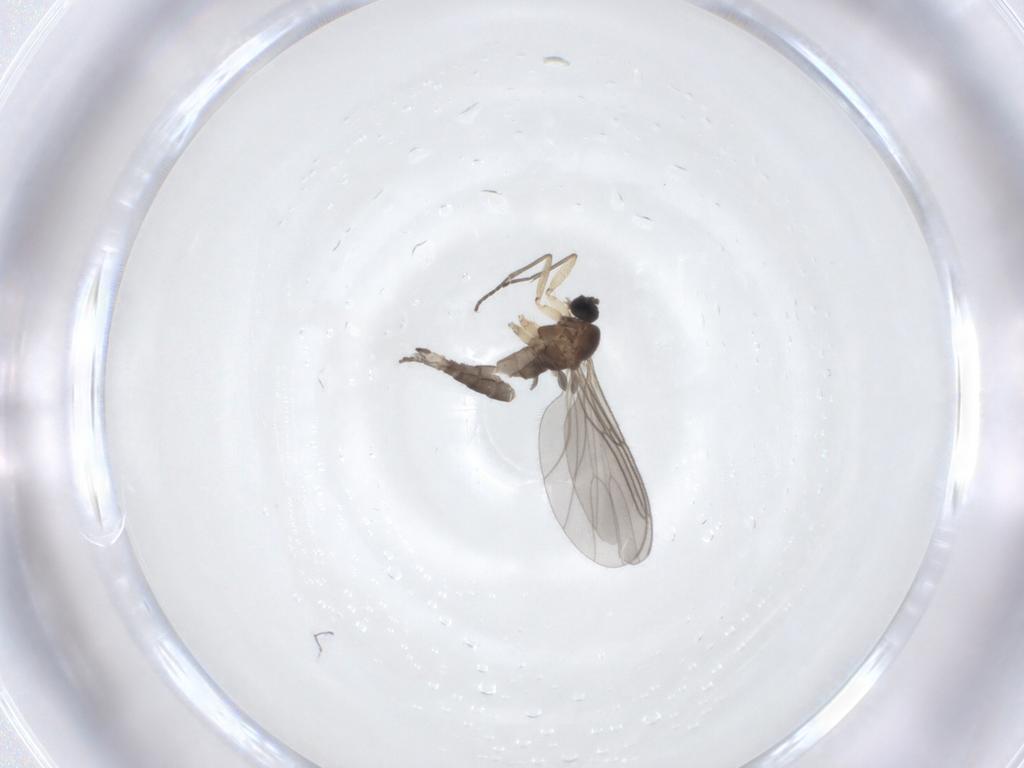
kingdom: Animalia
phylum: Arthropoda
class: Insecta
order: Diptera
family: Sciaridae
